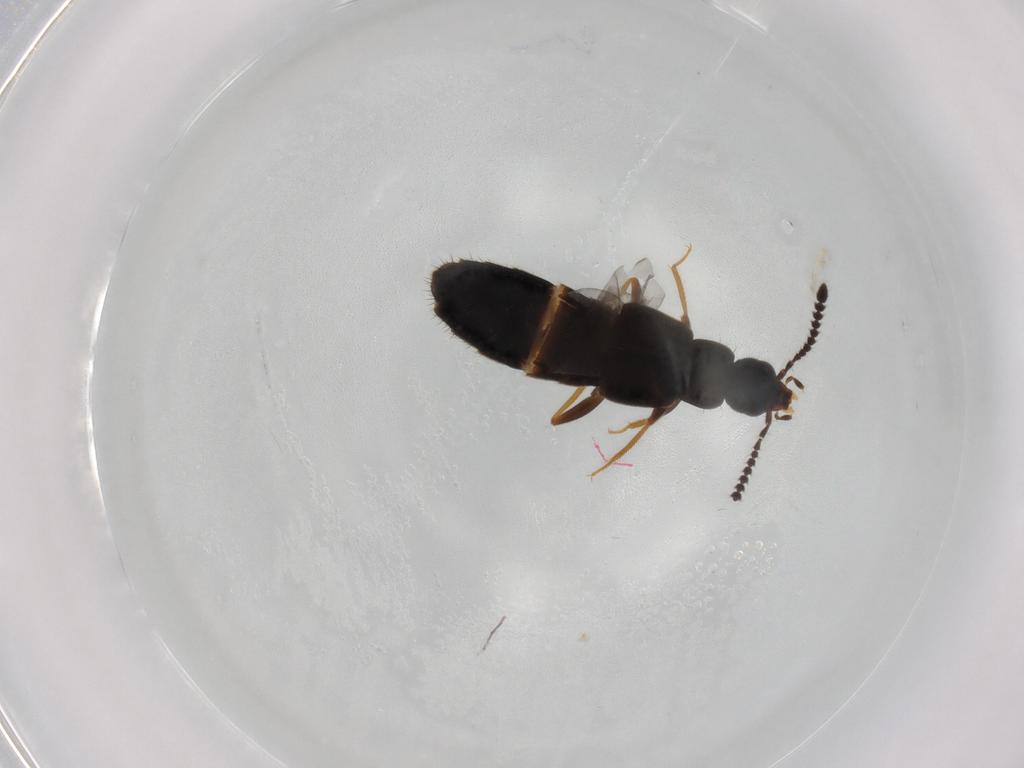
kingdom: Animalia
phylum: Arthropoda
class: Insecta
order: Coleoptera
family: Staphylinidae
